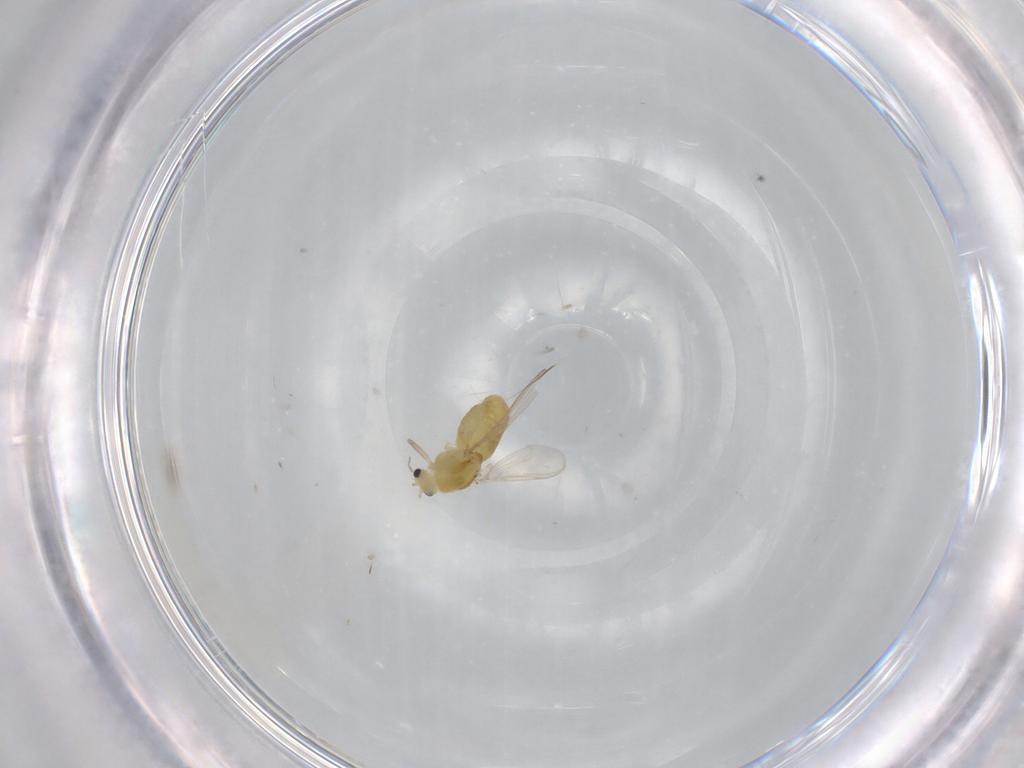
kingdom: Animalia
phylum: Arthropoda
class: Insecta
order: Diptera
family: Chironomidae
